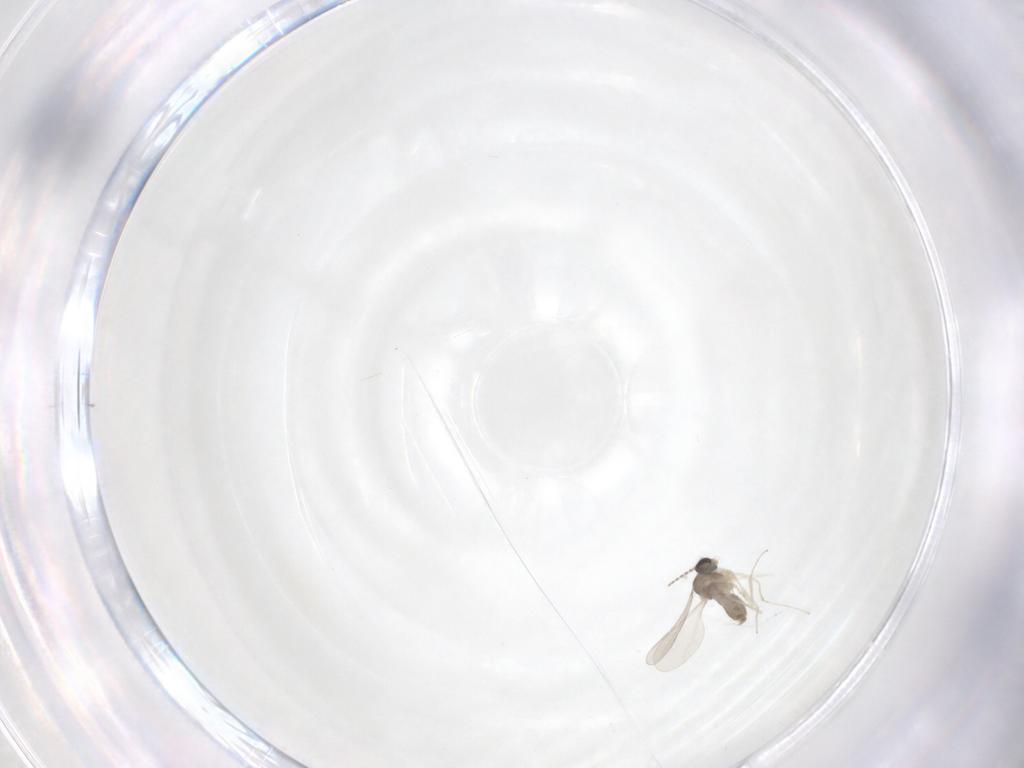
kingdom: Animalia
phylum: Arthropoda
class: Insecta
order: Diptera
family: Cecidomyiidae
